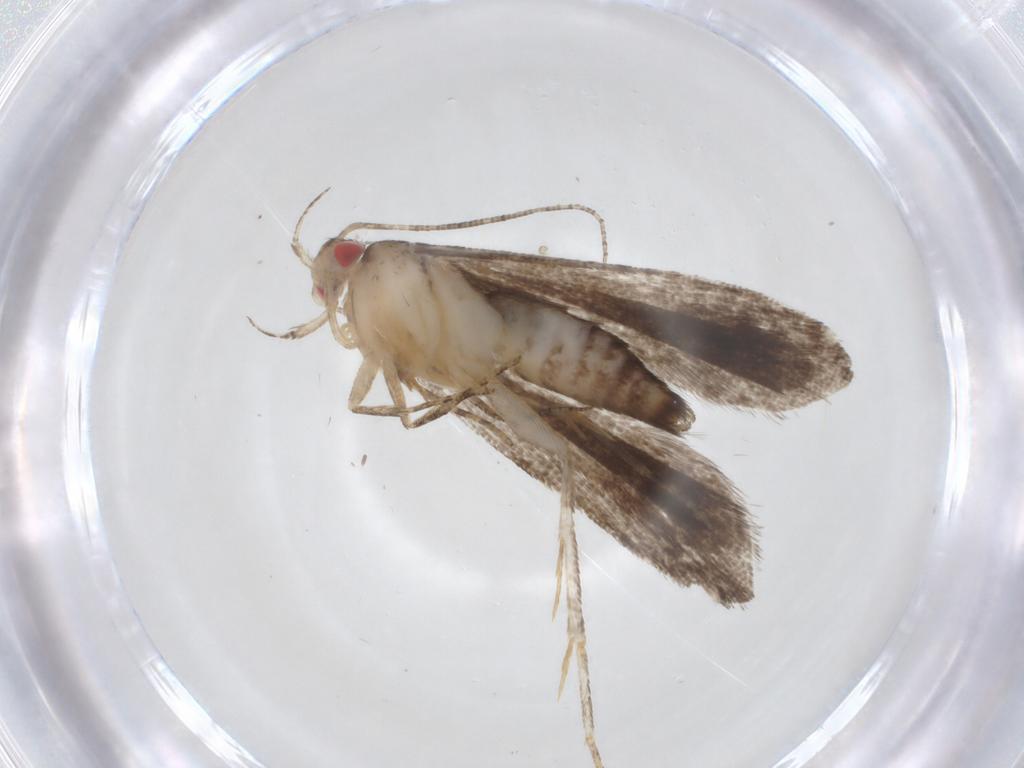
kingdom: Animalia
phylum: Arthropoda
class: Insecta
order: Lepidoptera
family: Gelechiidae
